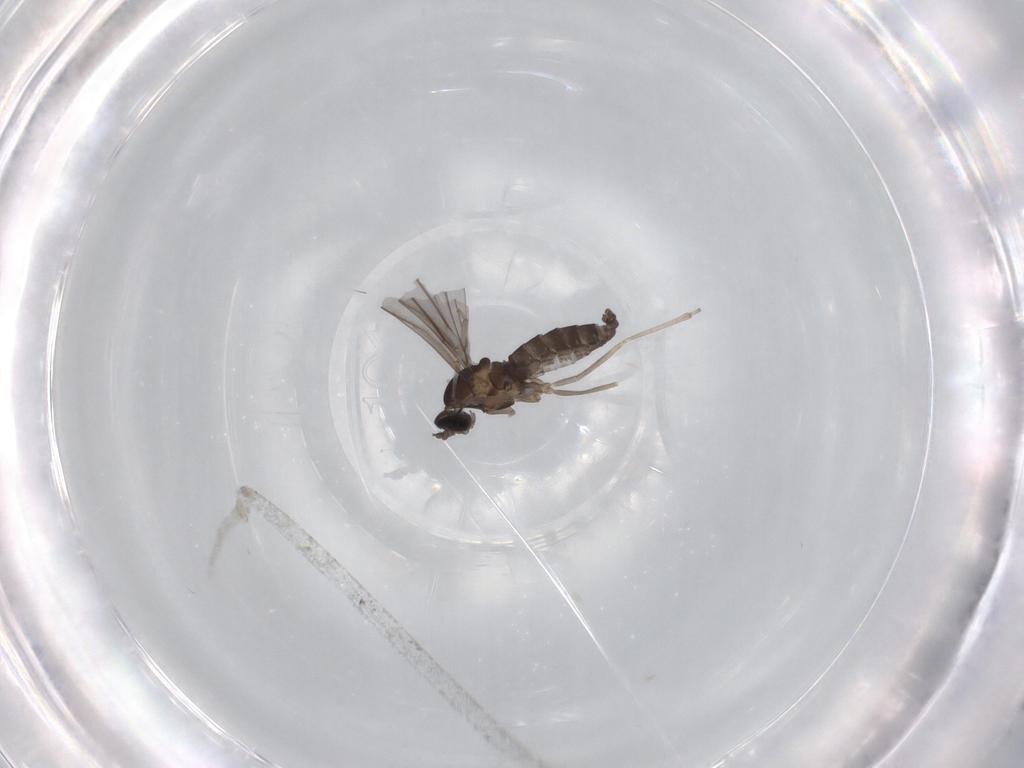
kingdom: Animalia
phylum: Arthropoda
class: Insecta
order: Diptera
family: Cecidomyiidae
